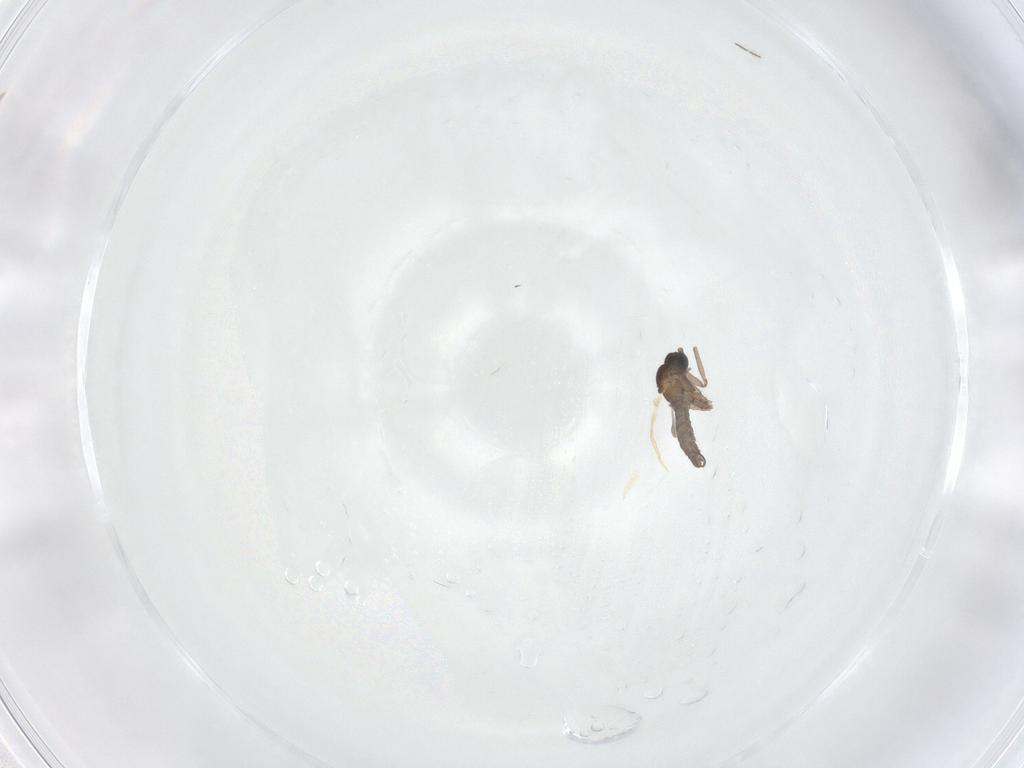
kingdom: Animalia
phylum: Arthropoda
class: Insecta
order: Diptera
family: Sciaridae
